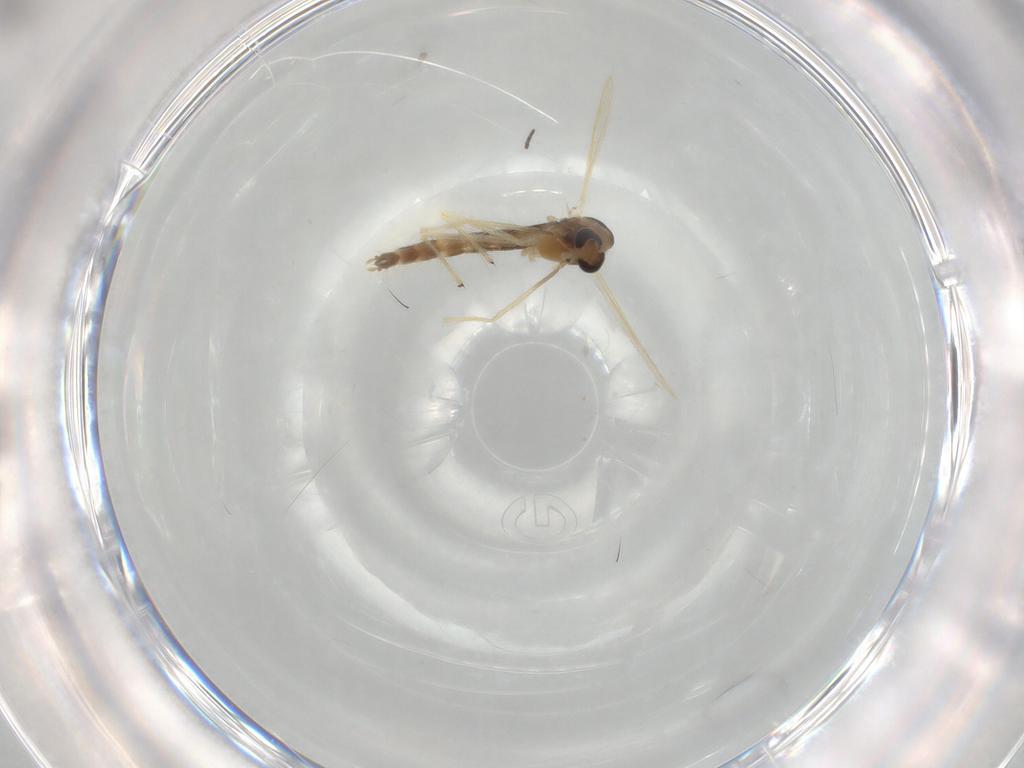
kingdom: Animalia
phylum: Arthropoda
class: Insecta
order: Diptera
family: Chironomidae
